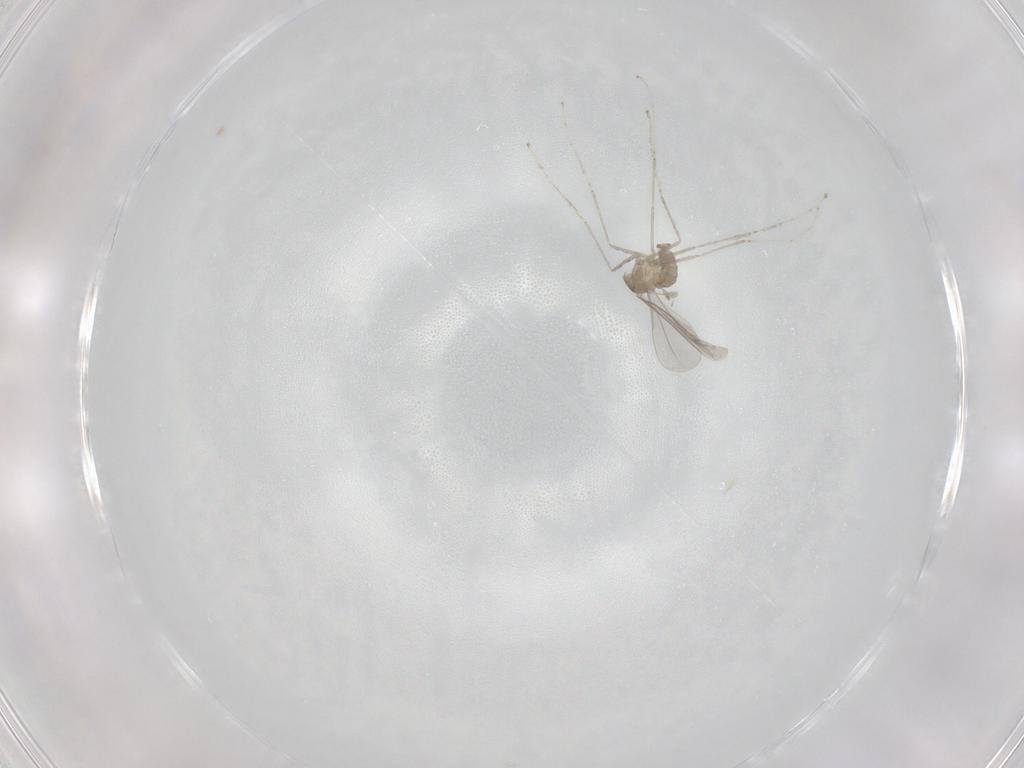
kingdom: Animalia
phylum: Arthropoda
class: Insecta
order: Diptera
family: Cecidomyiidae
